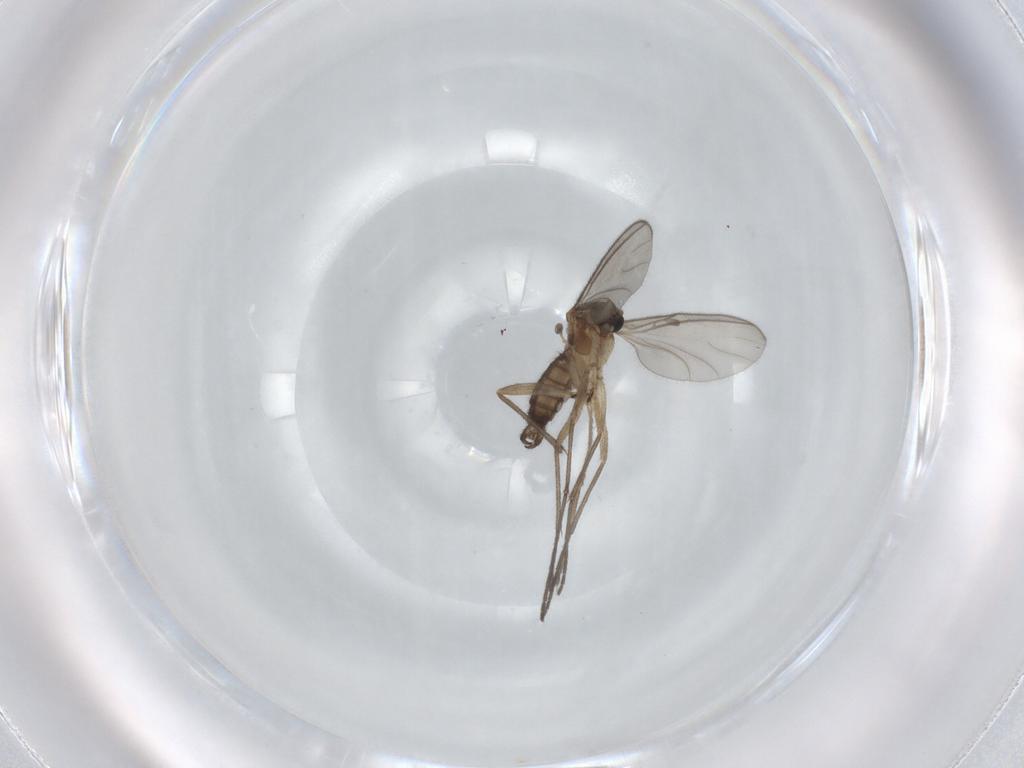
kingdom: Animalia
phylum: Arthropoda
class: Insecta
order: Diptera
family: Sciaridae
